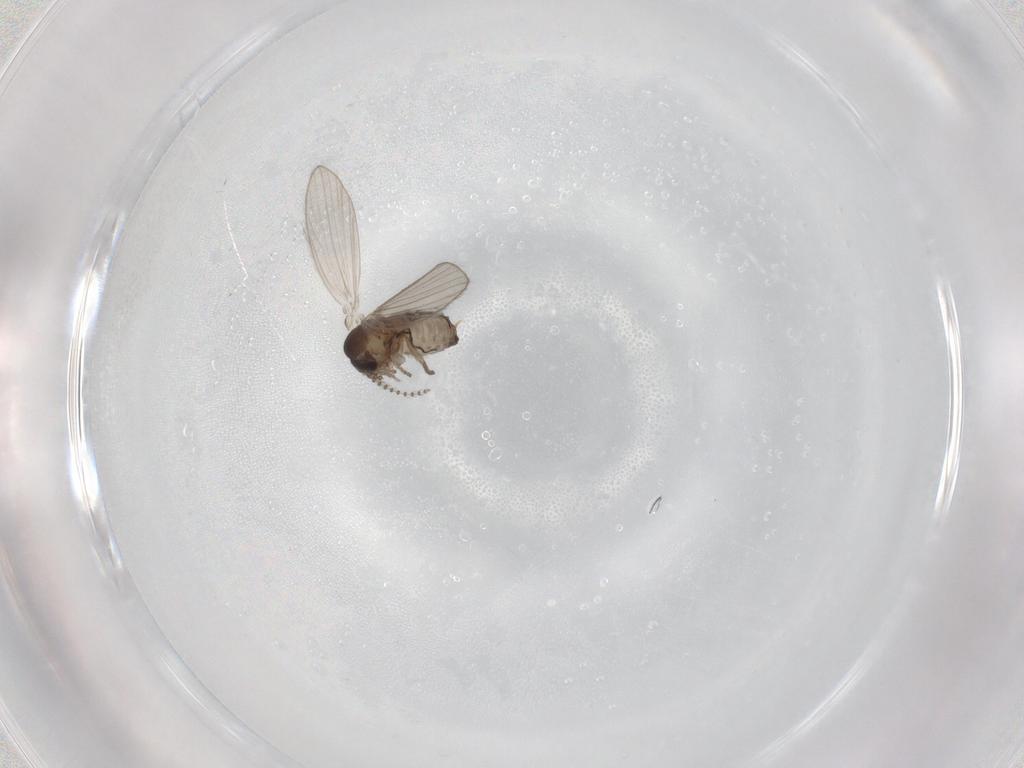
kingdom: Animalia
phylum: Arthropoda
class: Insecta
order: Diptera
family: Psychodidae
